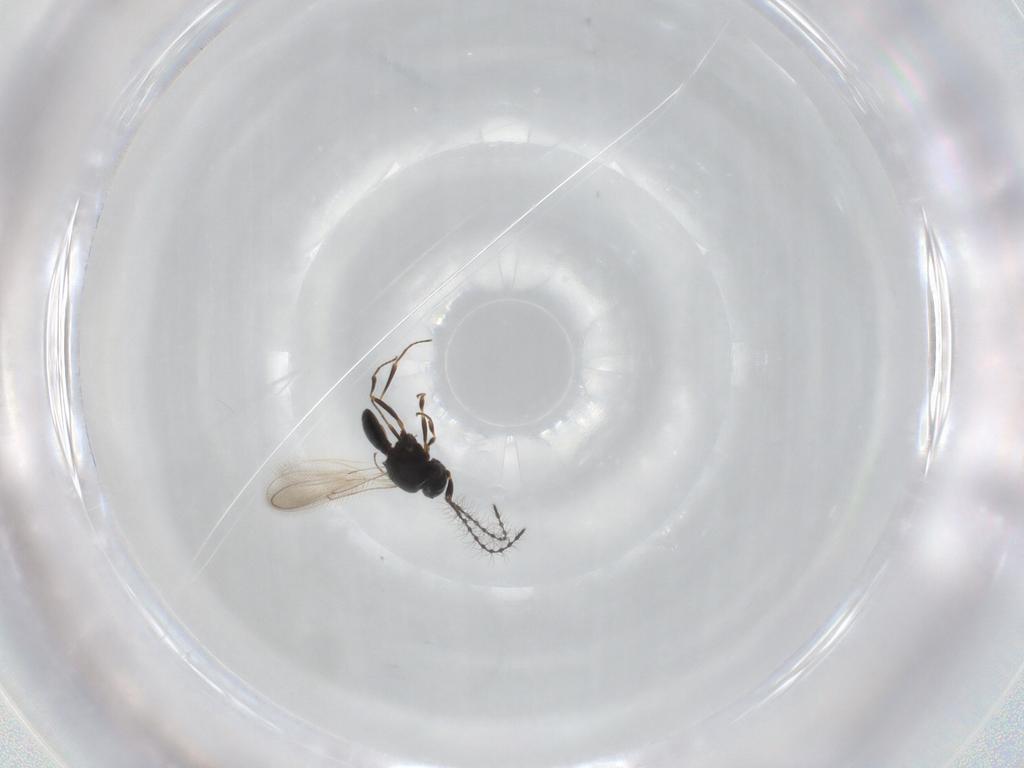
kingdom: Animalia
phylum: Arthropoda
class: Insecta
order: Hymenoptera
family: Scelionidae
